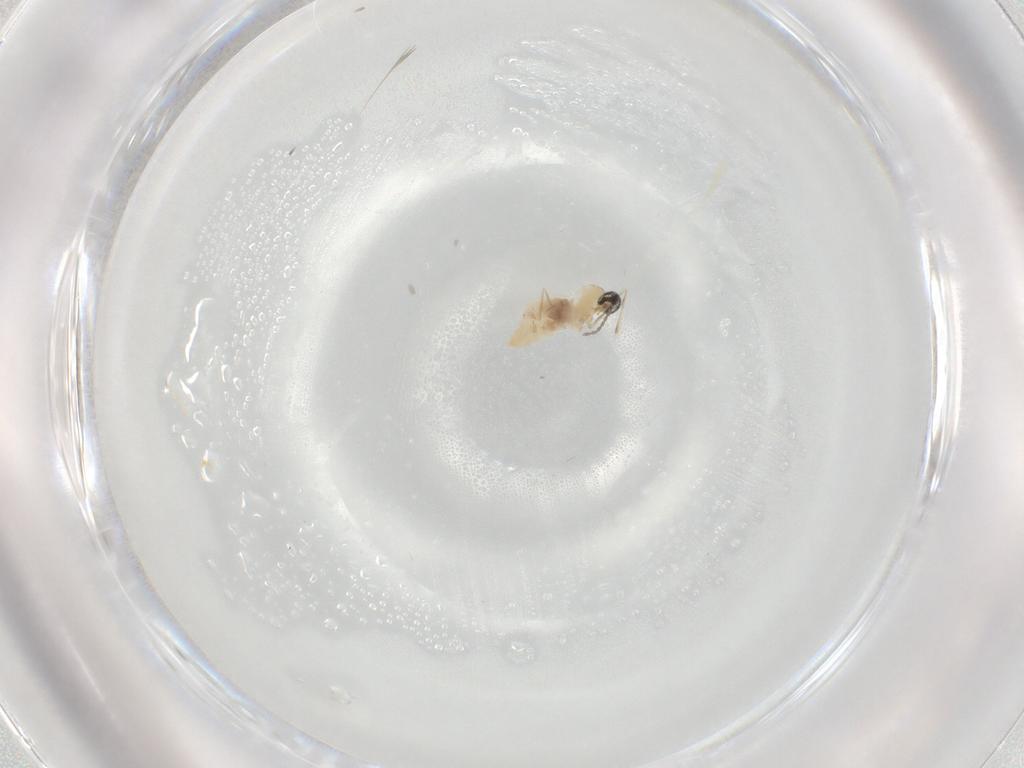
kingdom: Animalia
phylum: Arthropoda
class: Insecta
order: Diptera
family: Cecidomyiidae
